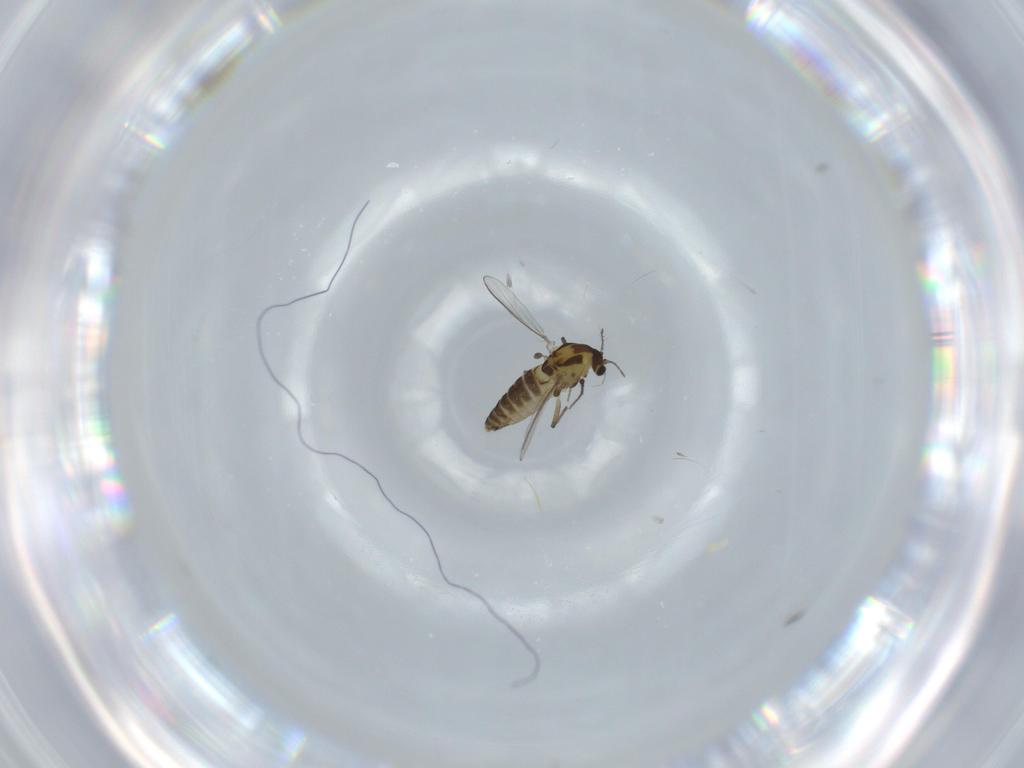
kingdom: Animalia
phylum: Arthropoda
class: Insecta
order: Diptera
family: Chironomidae
